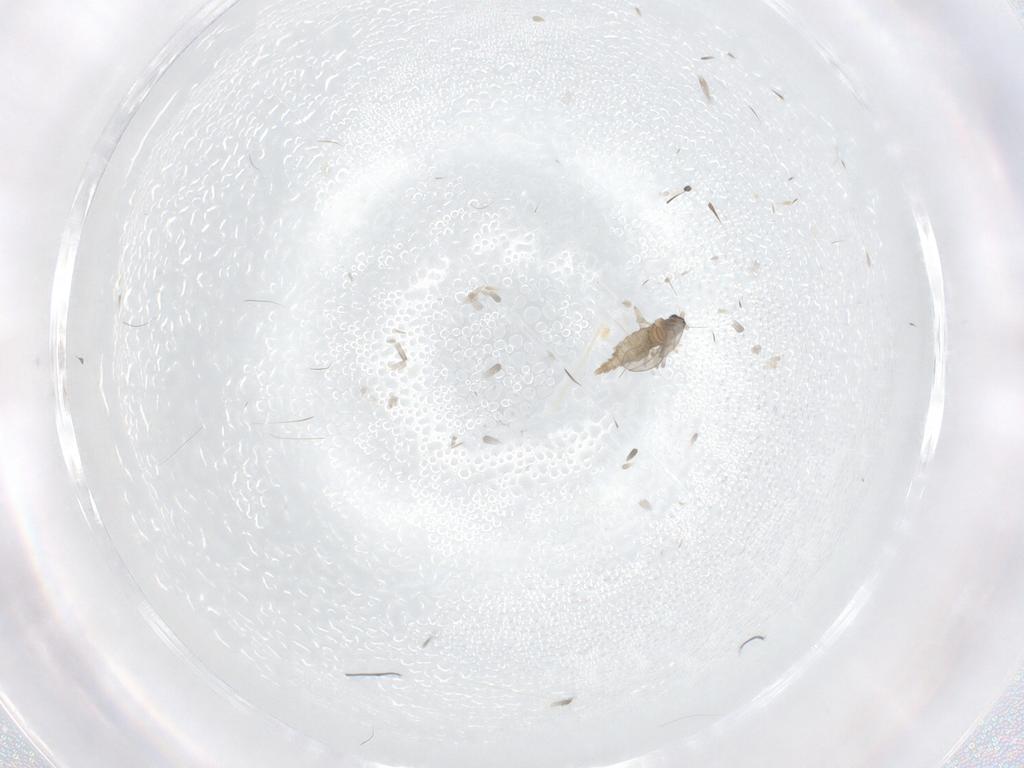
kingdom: Animalia
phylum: Arthropoda
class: Insecta
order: Diptera
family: Cecidomyiidae
